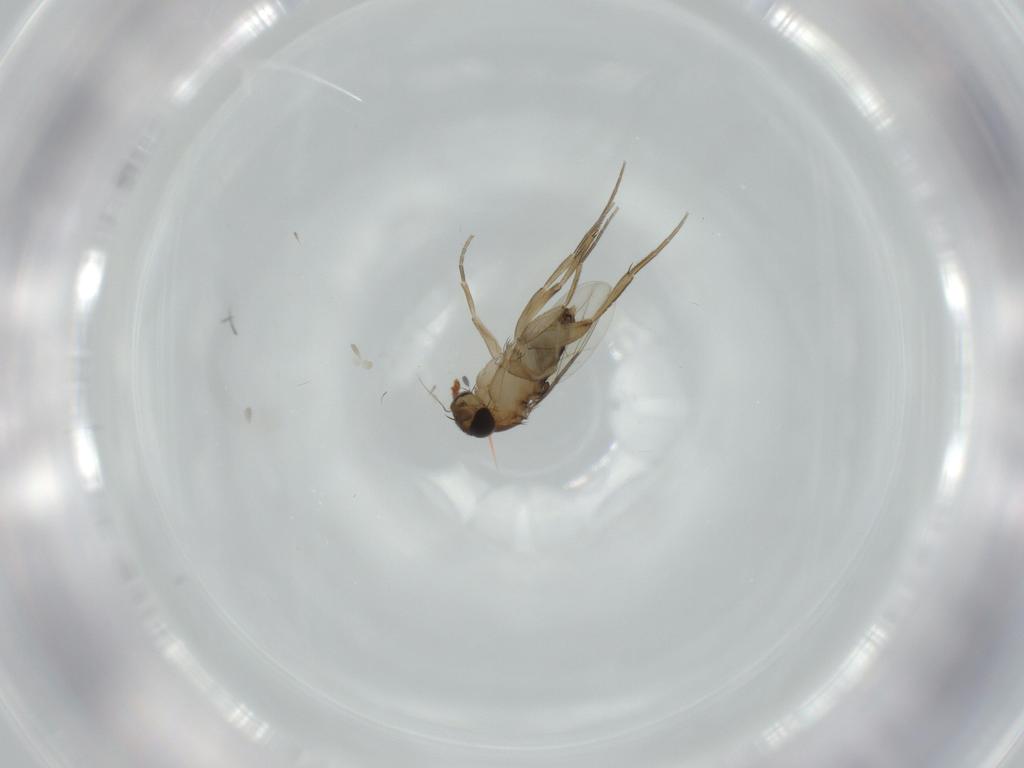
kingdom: Animalia
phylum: Arthropoda
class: Insecta
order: Diptera
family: Phoridae
